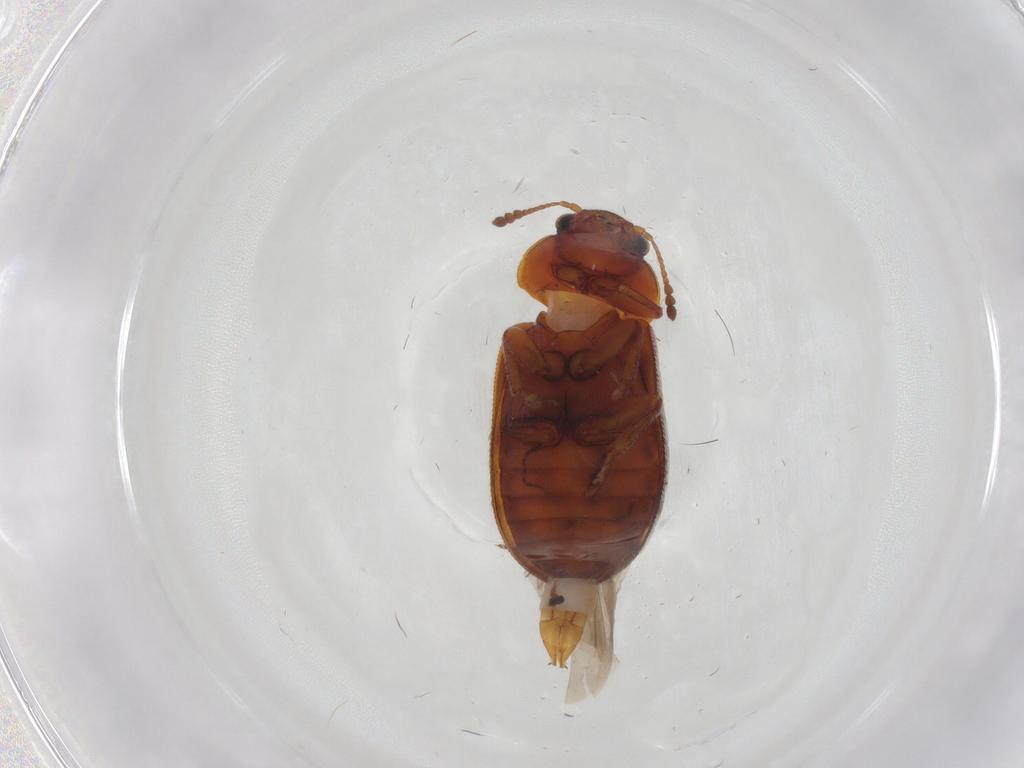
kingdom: Animalia
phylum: Arthropoda
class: Insecta
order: Coleoptera
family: Byturidae
